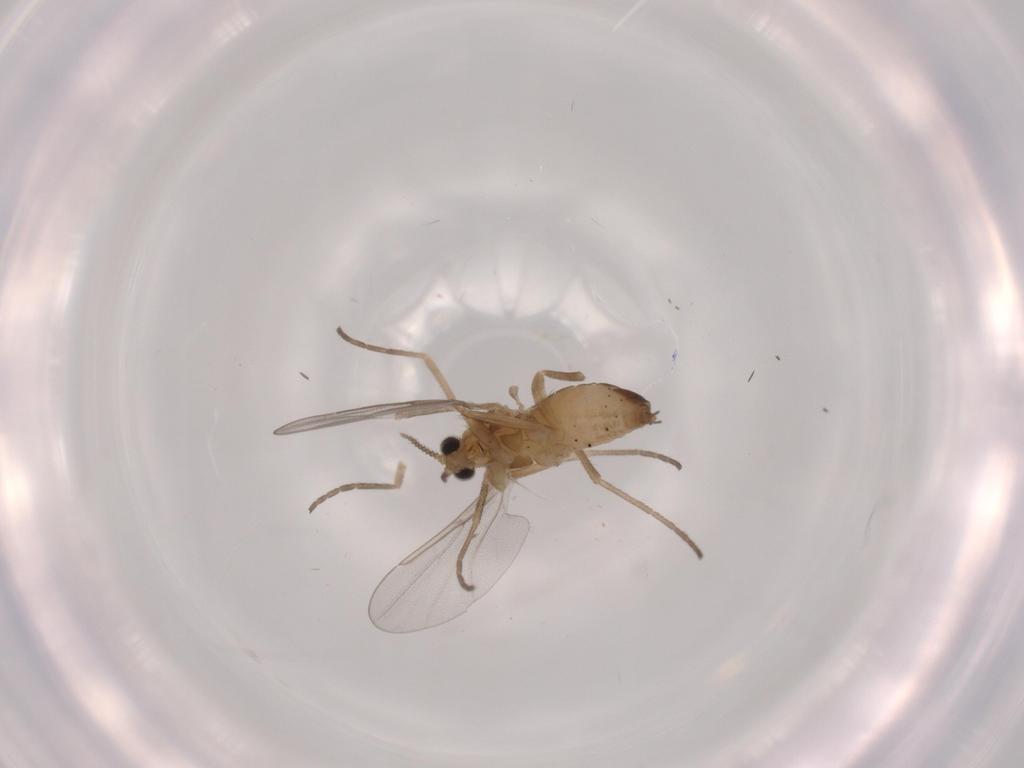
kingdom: Animalia
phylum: Arthropoda
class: Insecta
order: Diptera
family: Cecidomyiidae
